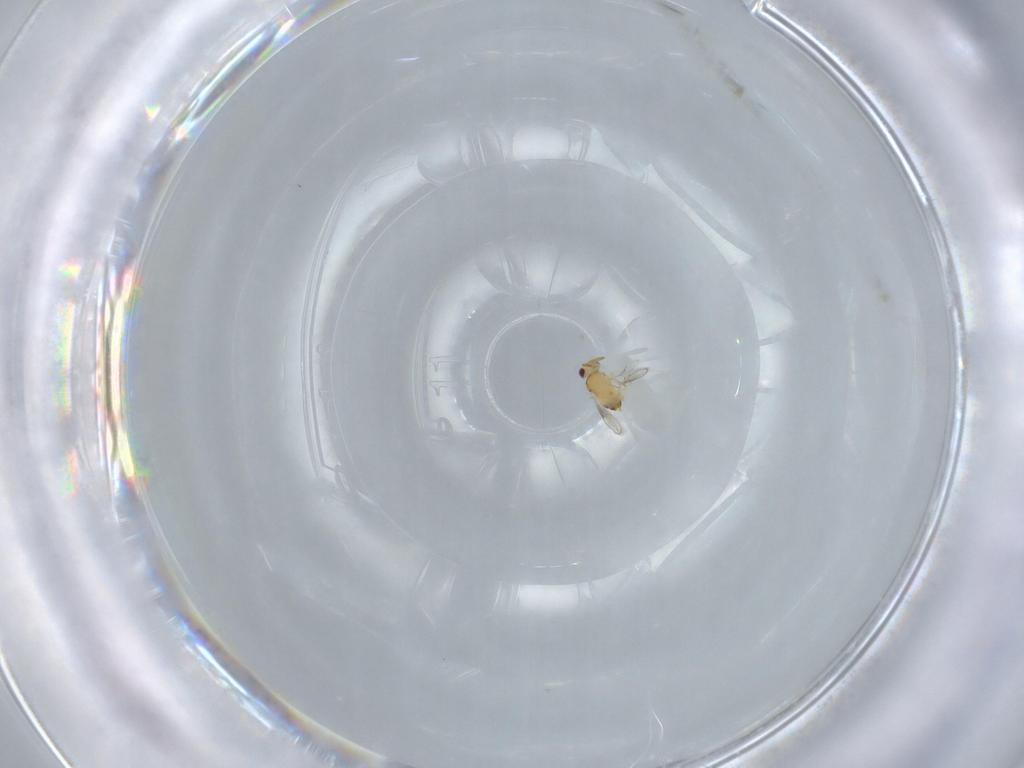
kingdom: Animalia
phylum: Arthropoda
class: Insecta
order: Hymenoptera
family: Aphelinidae
